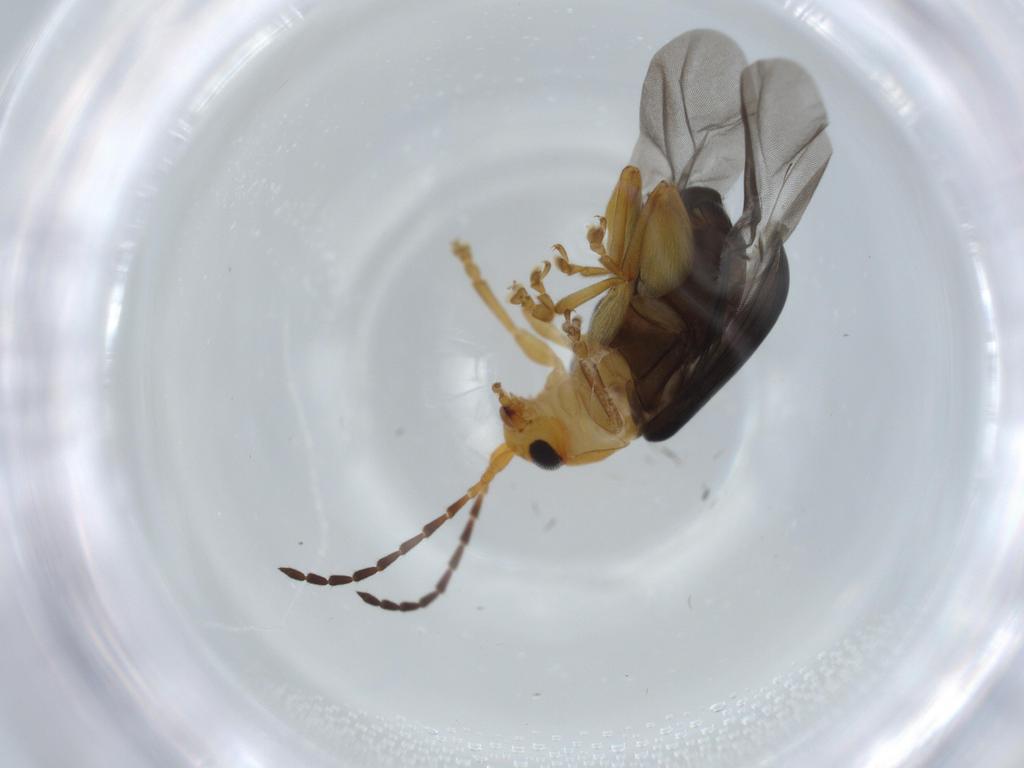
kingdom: Animalia
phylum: Arthropoda
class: Insecta
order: Coleoptera
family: Chrysomelidae
